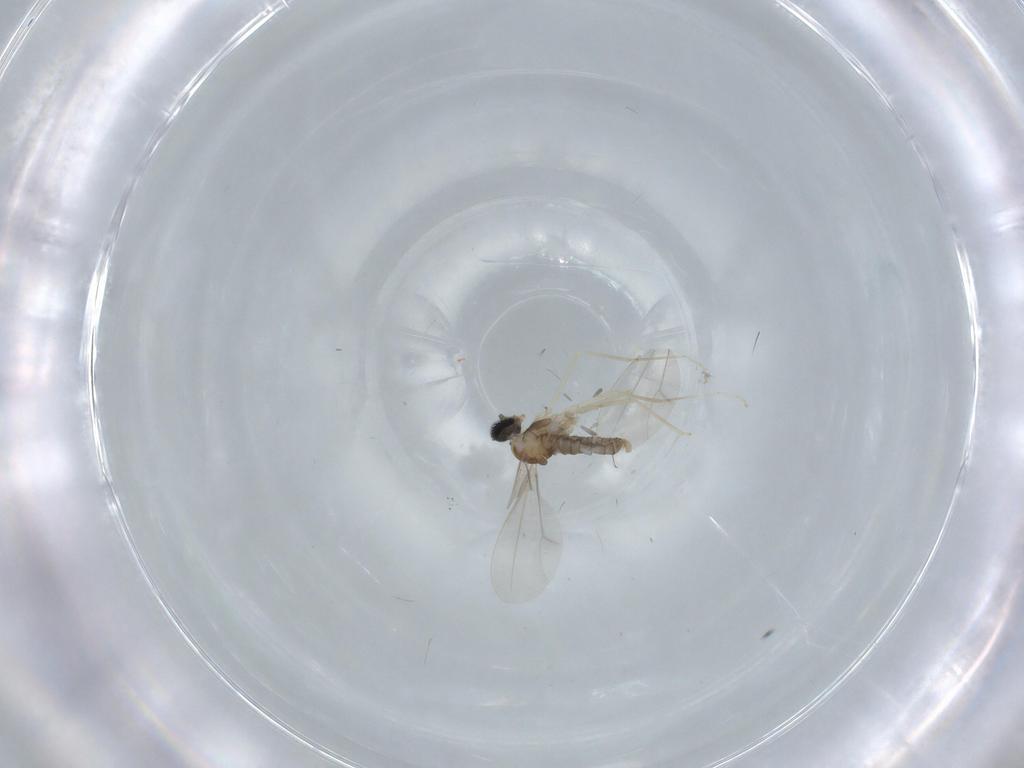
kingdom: Animalia
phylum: Arthropoda
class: Insecta
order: Diptera
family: Cecidomyiidae
